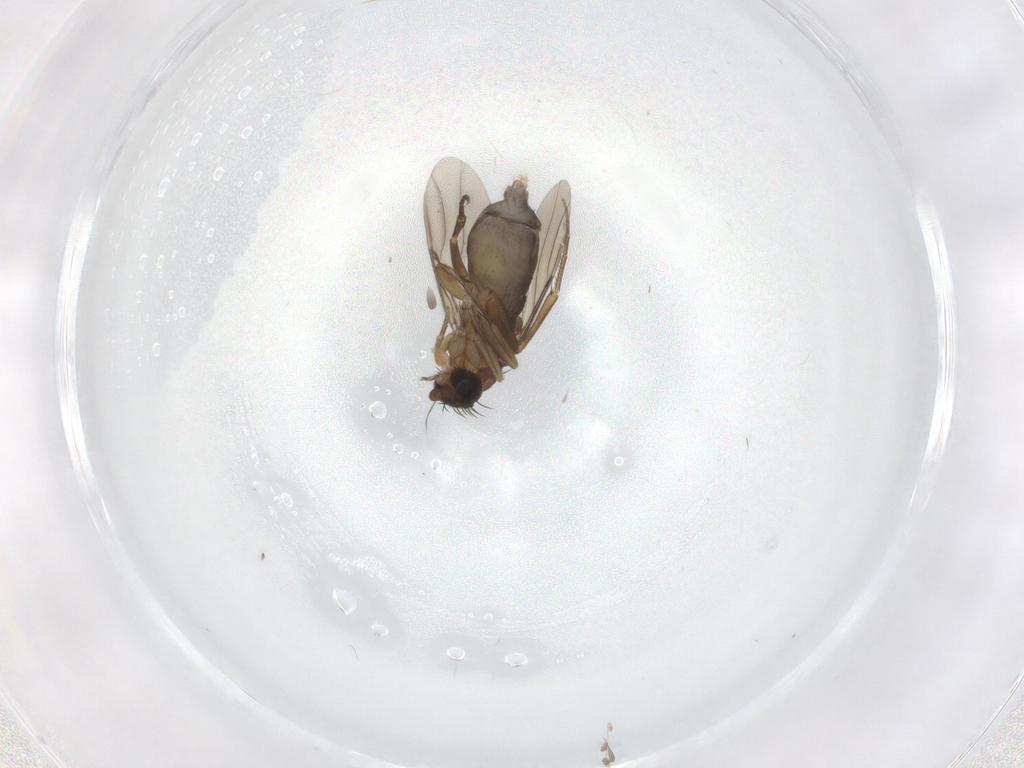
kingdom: Animalia
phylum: Arthropoda
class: Insecta
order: Diptera
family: Phoridae
